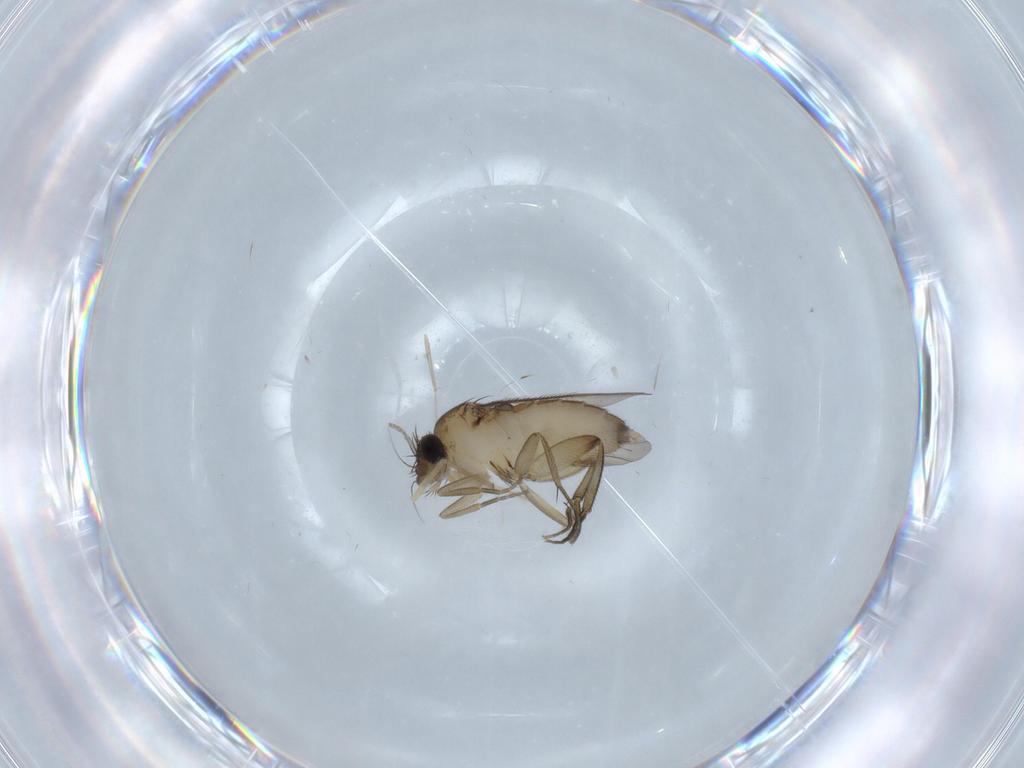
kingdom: Animalia
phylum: Arthropoda
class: Insecta
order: Diptera
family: Phoridae
